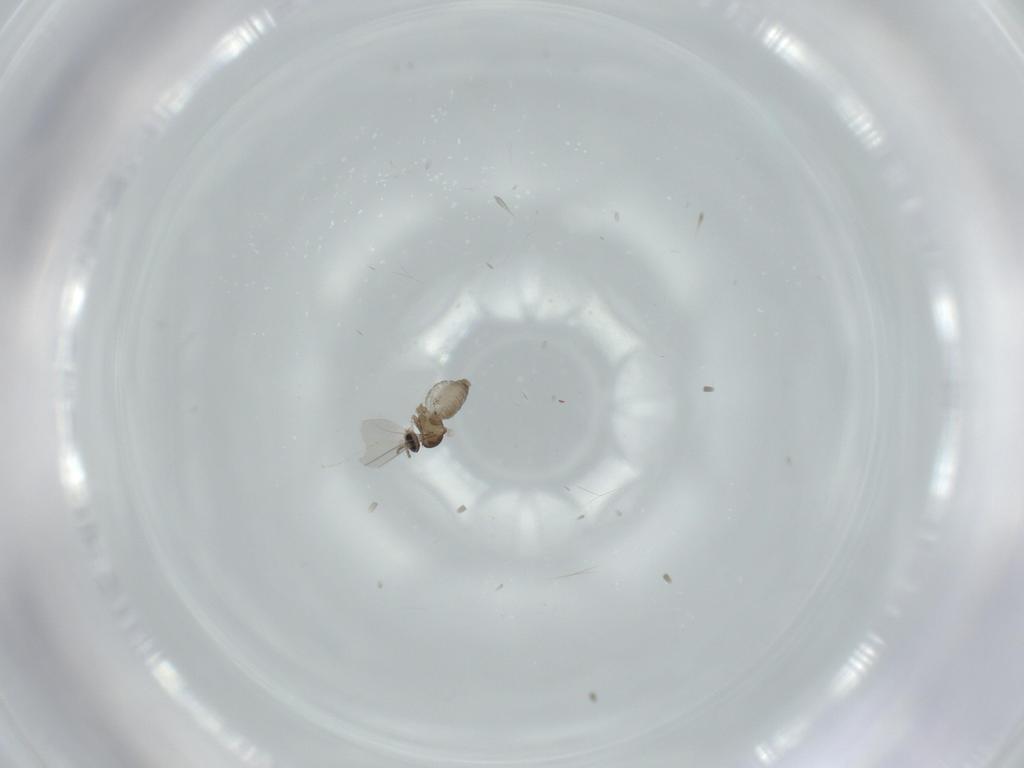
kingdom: Animalia
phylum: Arthropoda
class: Insecta
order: Diptera
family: Cecidomyiidae
